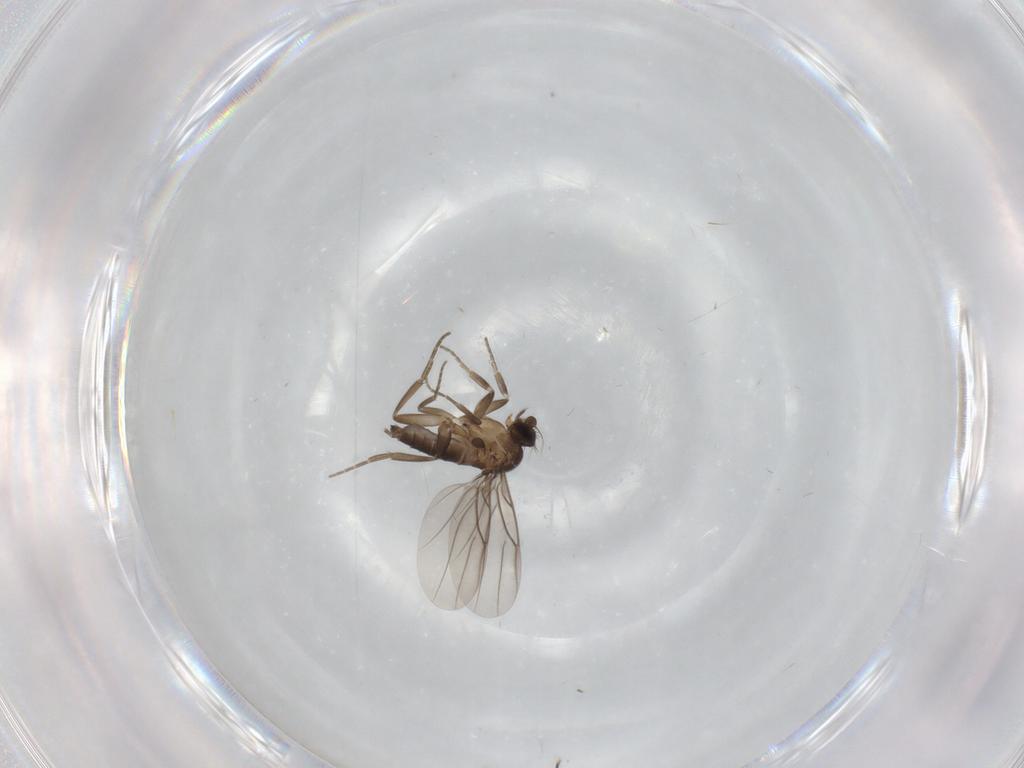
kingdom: Animalia
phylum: Arthropoda
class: Insecta
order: Diptera
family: Phoridae
